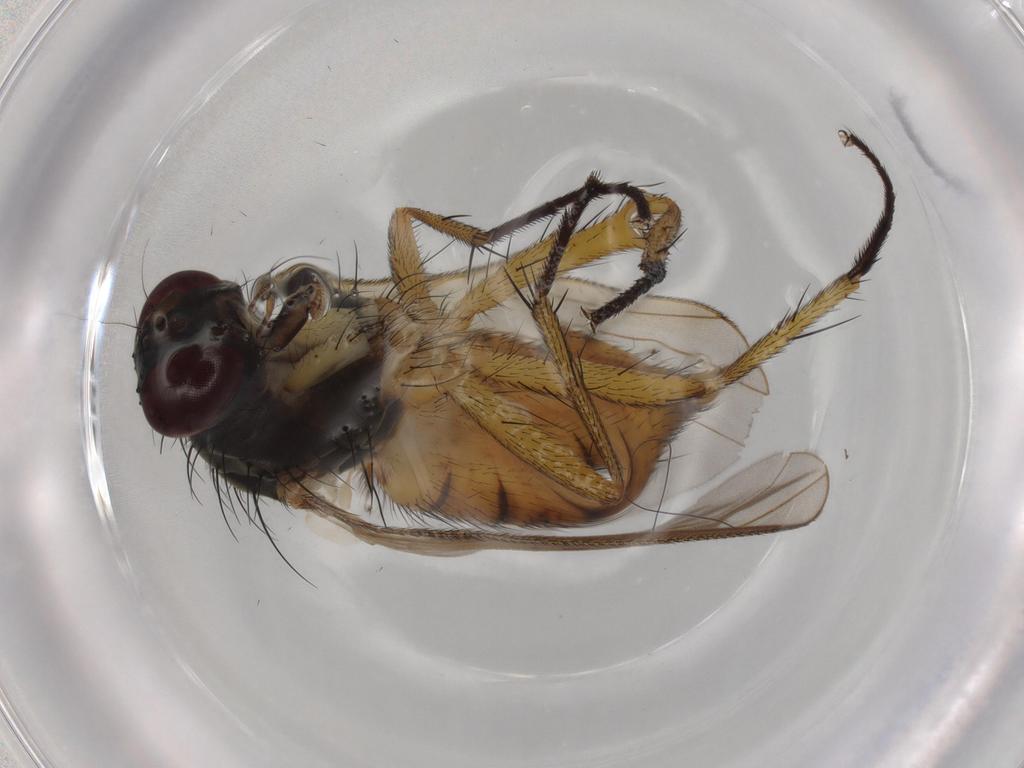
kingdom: Animalia
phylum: Arthropoda
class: Insecta
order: Diptera
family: Muscidae
